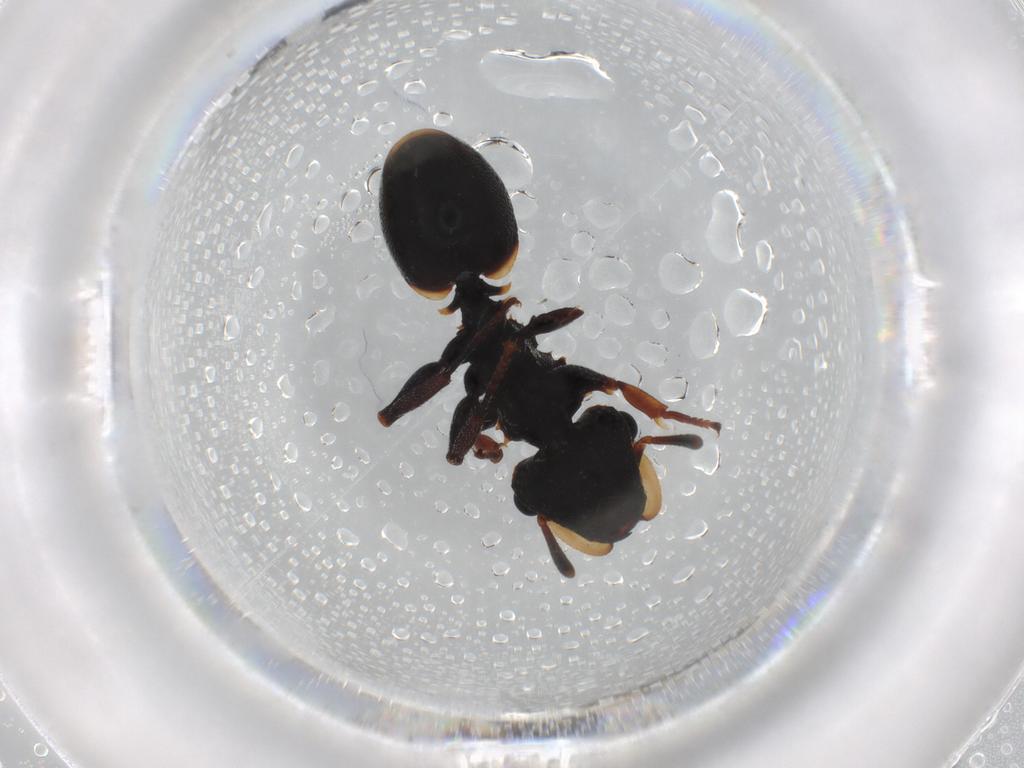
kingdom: Animalia
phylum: Arthropoda
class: Insecta
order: Hymenoptera
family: Formicidae
